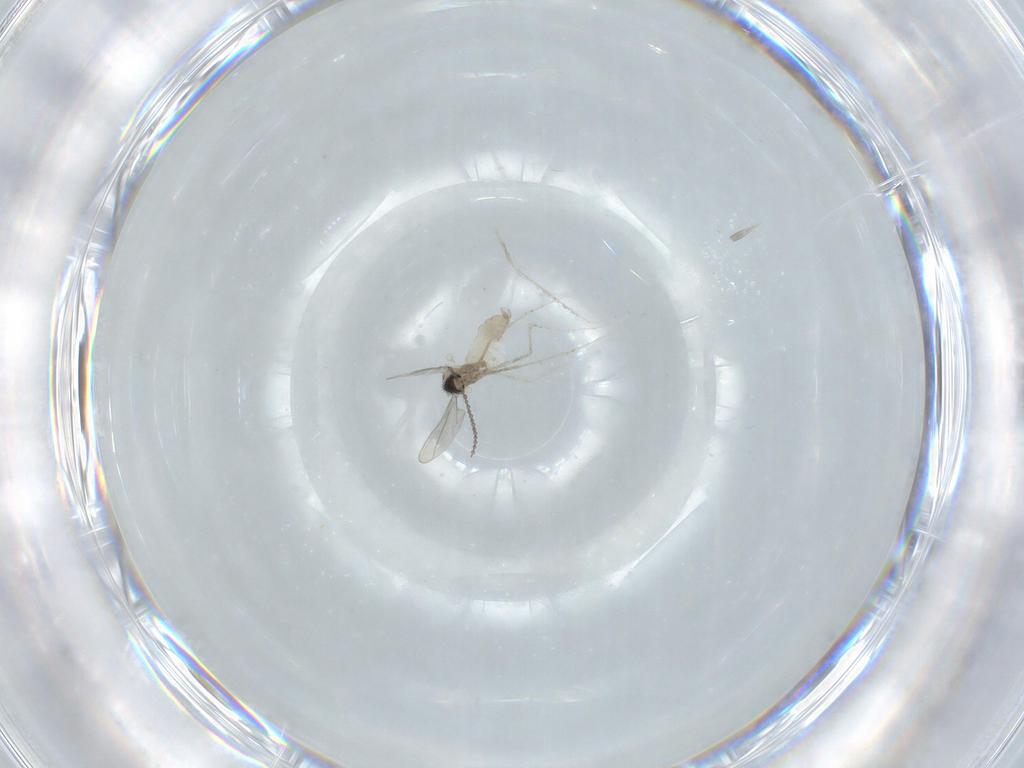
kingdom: Animalia
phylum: Arthropoda
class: Insecta
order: Diptera
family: Cecidomyiidae
